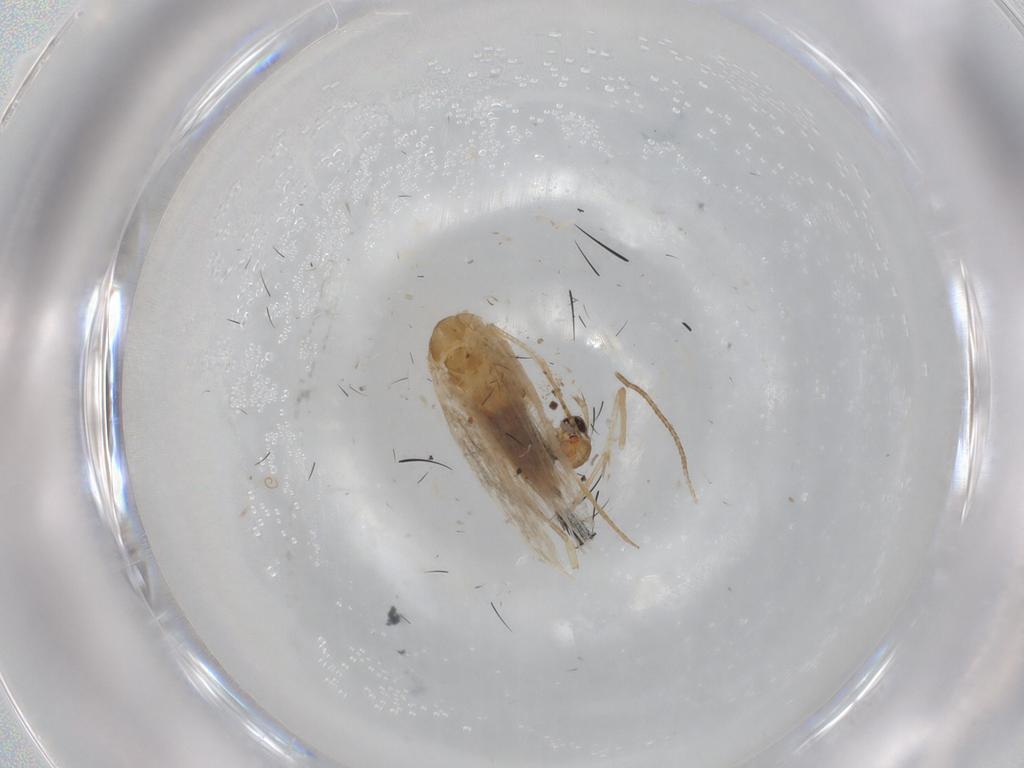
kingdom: Animalia
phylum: Arthropoda
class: Insecta
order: Lepidoptera
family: Cosmopterigidae
